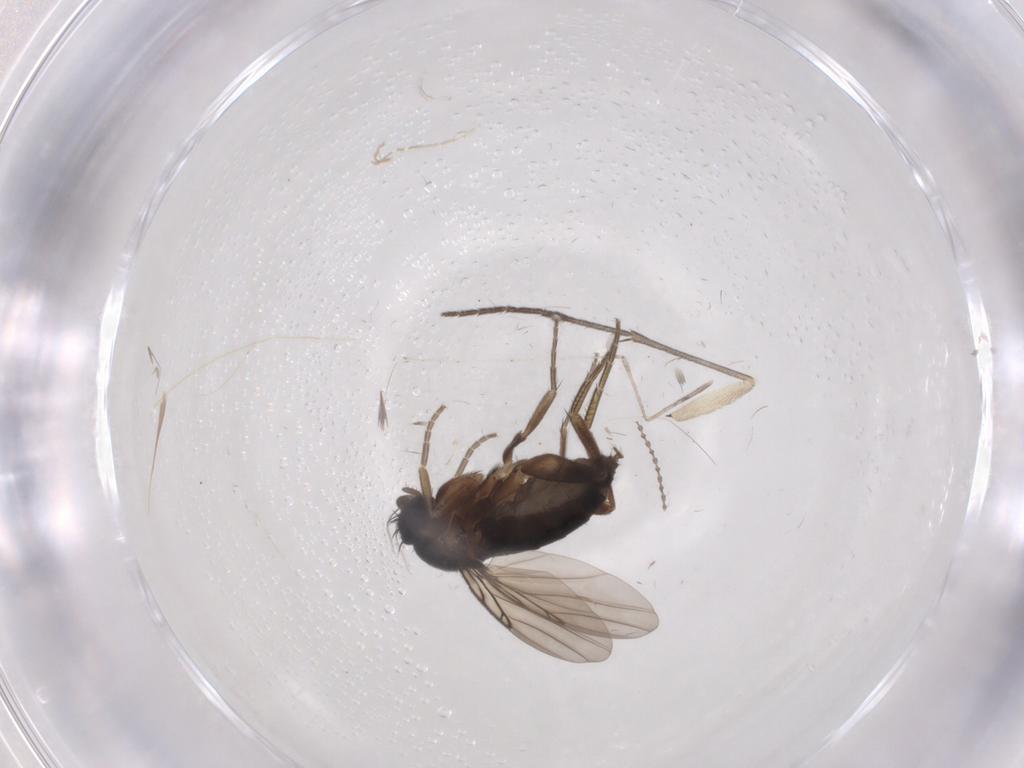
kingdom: Animalia
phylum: Arthropoda
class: Insecta
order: Diptera
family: Phoridae
